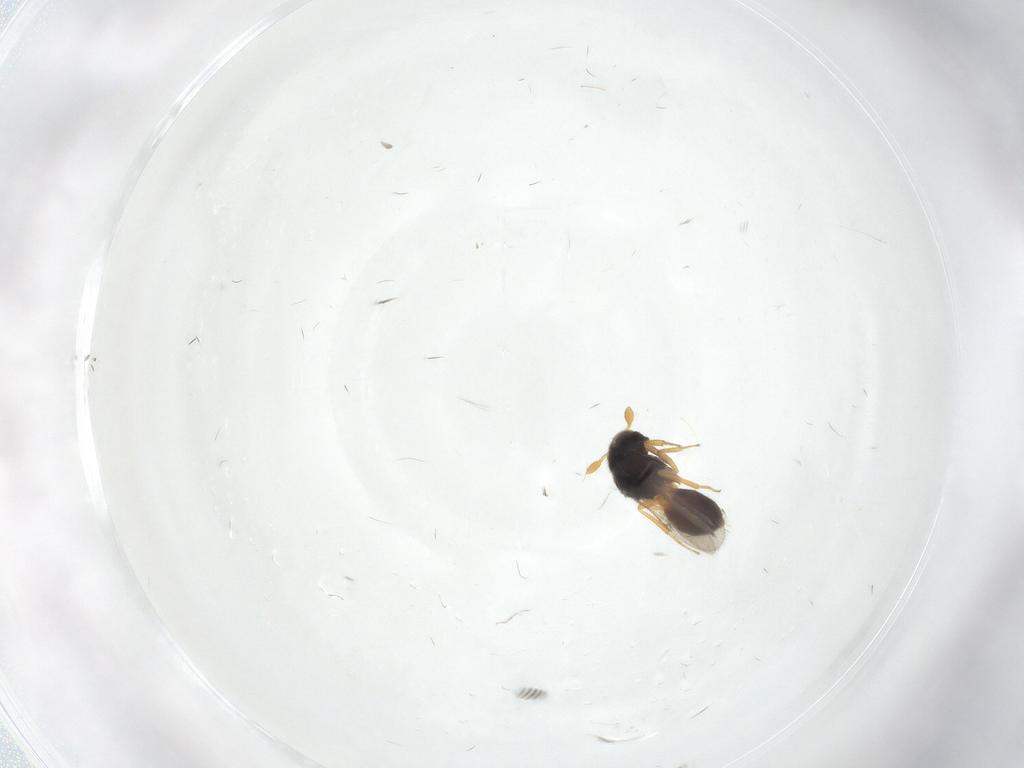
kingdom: Animalia
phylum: Arthropoda
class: Insecta
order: Hymenoptera
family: Scelionidae
